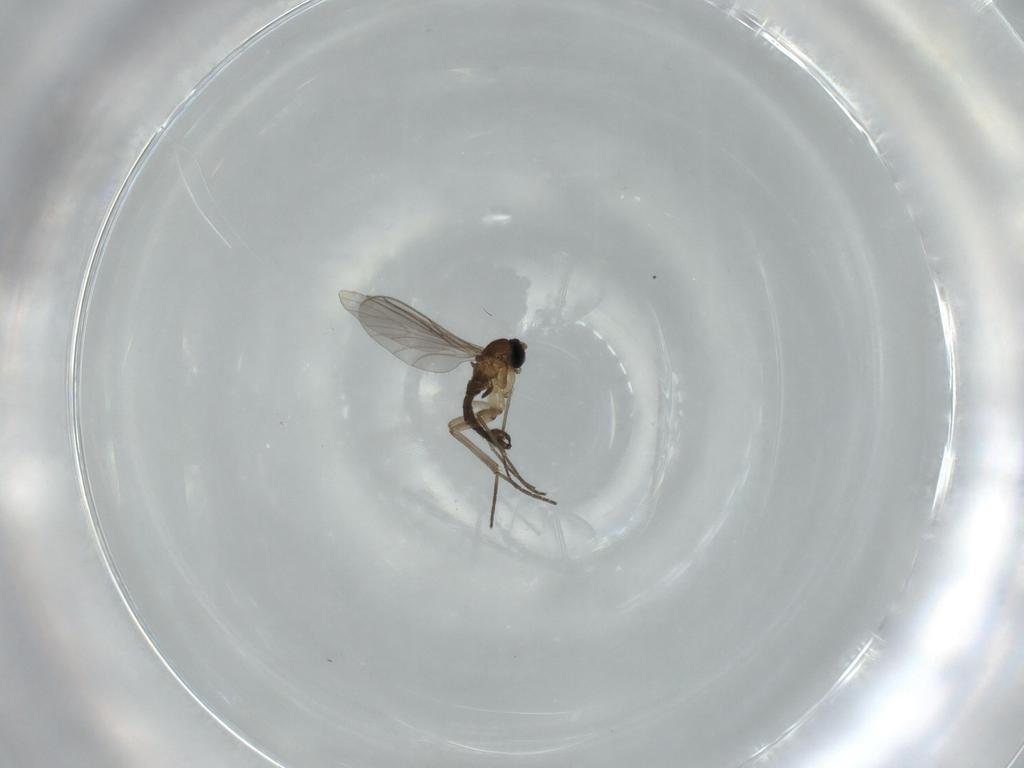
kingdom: Animalia
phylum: Arthropoda
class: Insecta
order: Diptera
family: Sciaridae
